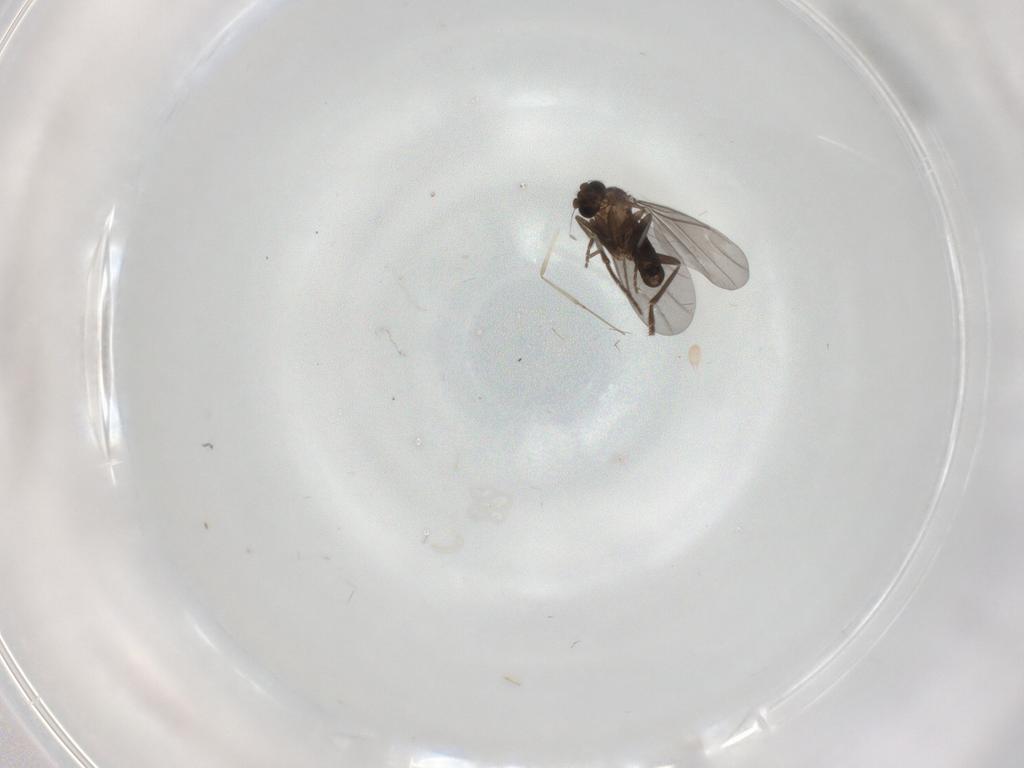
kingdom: Animalia
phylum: Arthropoda
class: Insecta
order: Diptera
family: Phoridae
